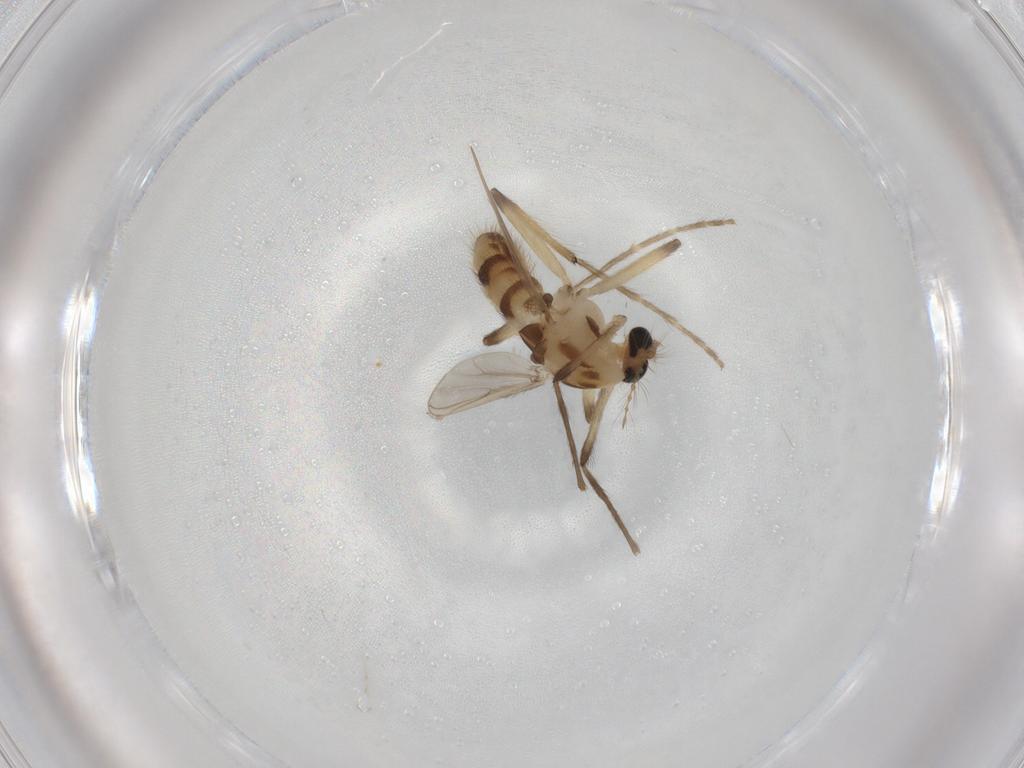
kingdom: Animalia
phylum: Arthropoda
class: Insecta
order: Diptera
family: Chironomidae
